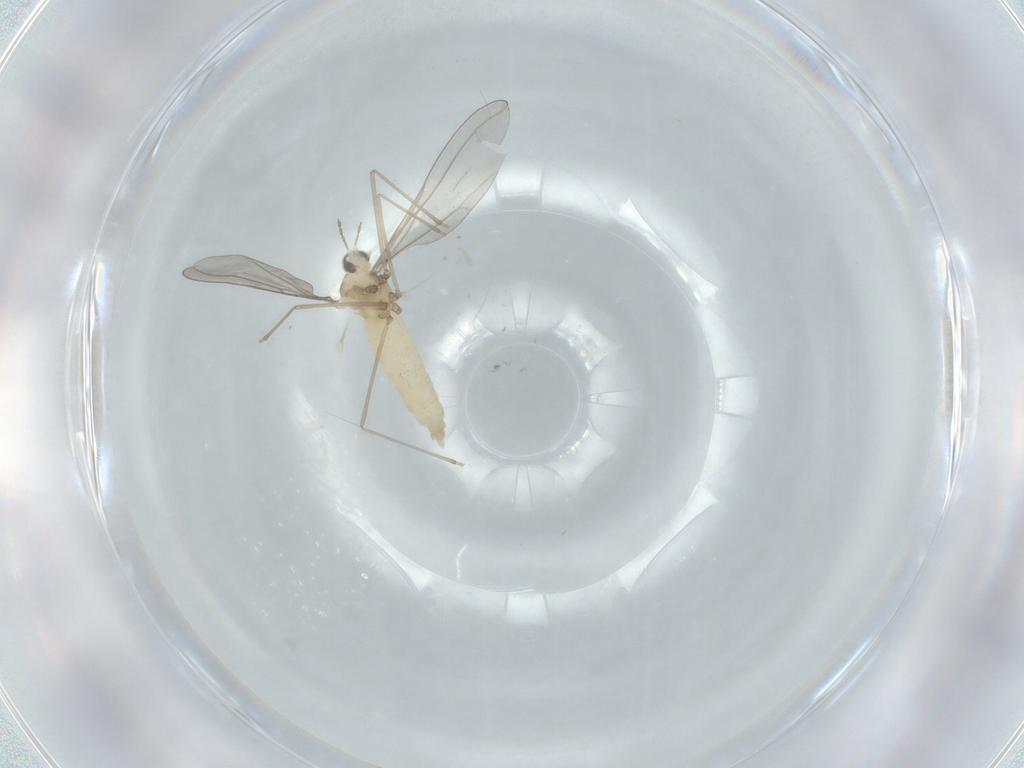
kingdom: Animalia
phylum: Arthropoda
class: Insecta
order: Diptera
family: Cecidomyiidae
